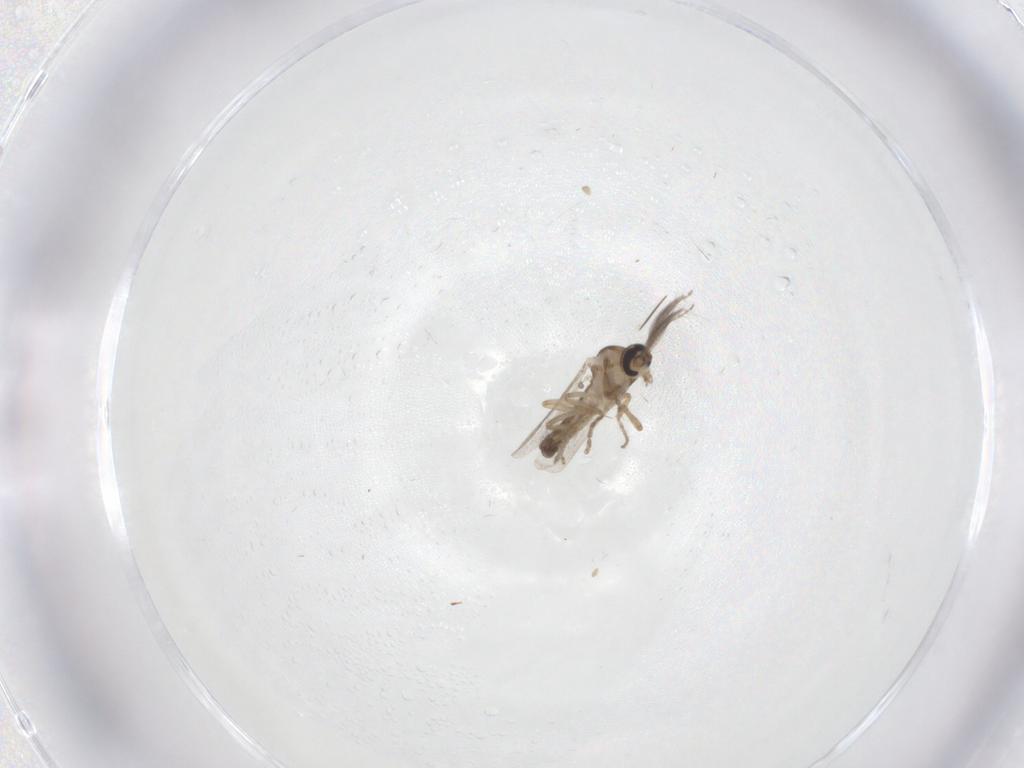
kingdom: Animalia
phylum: Arthropoda
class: Insecta
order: Diptera
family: Ceratopogonidae
